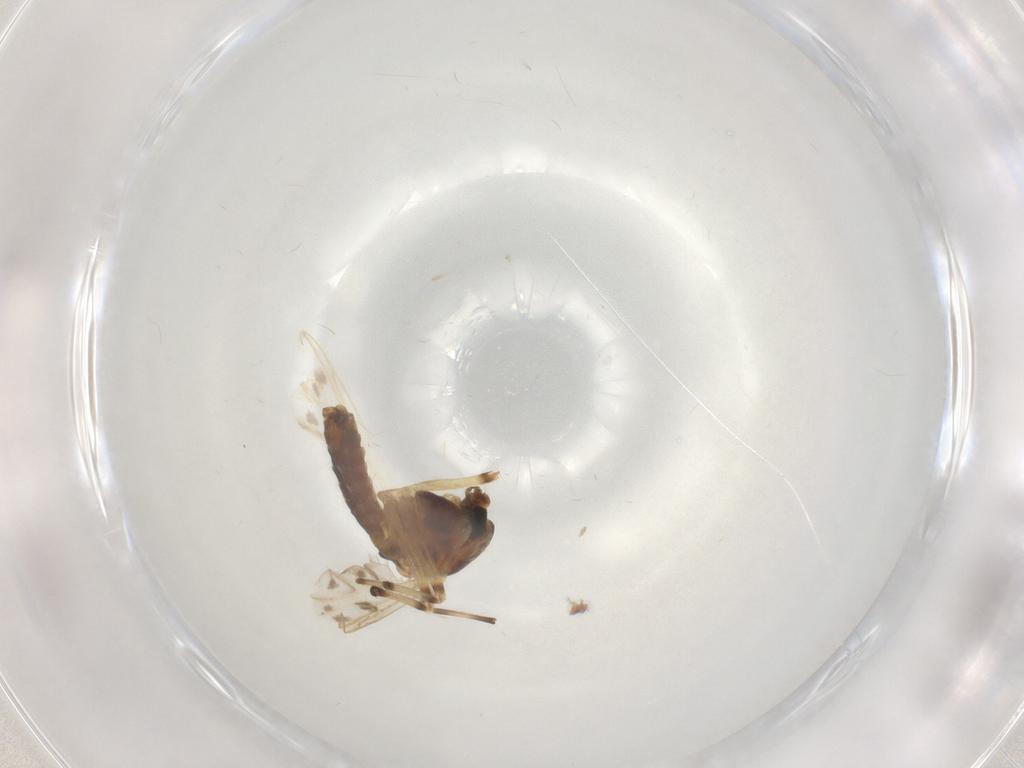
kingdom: Animalia
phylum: Arthropoda
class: Insecta
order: Diptera
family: Chironomidae
